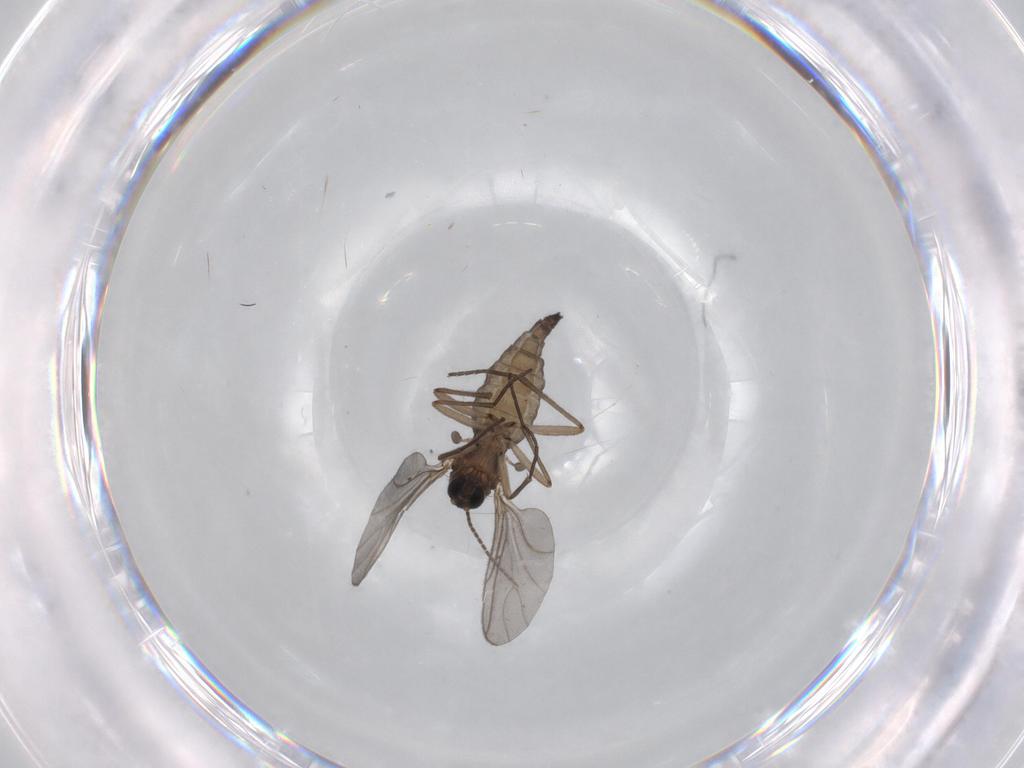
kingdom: Animalia
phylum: Arthropoda
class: Insecta
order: Diptera
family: Sciaridae
